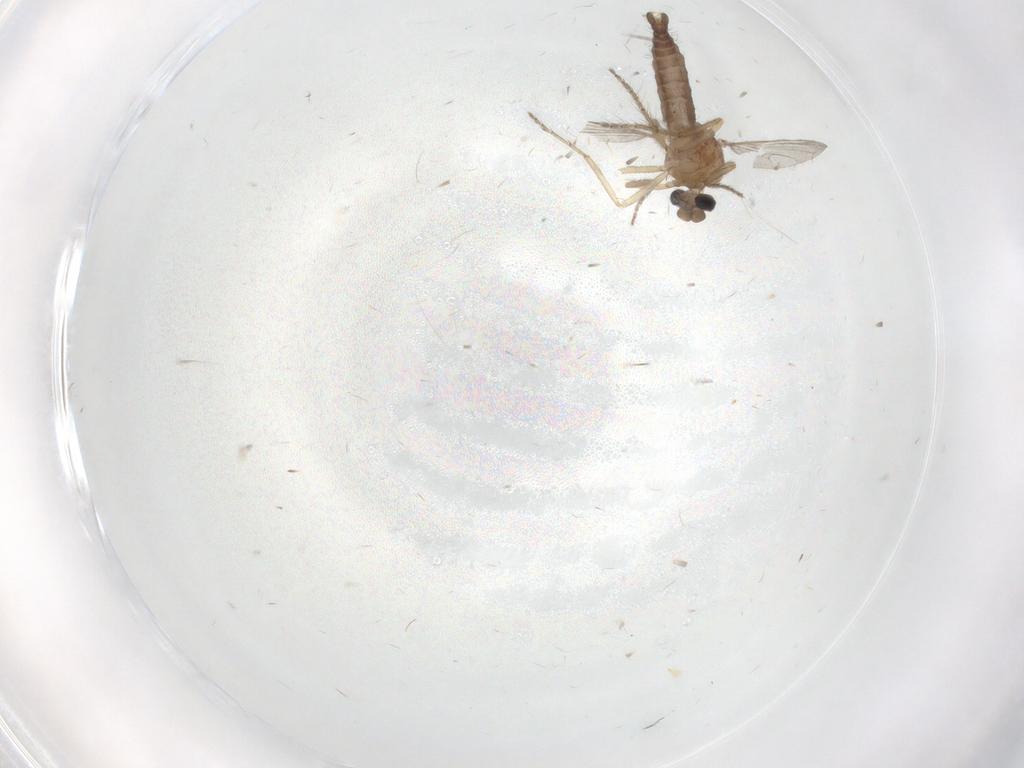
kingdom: Animalia
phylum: Arthropoda
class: Insecta
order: Diptera
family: Ceratopogonidae
